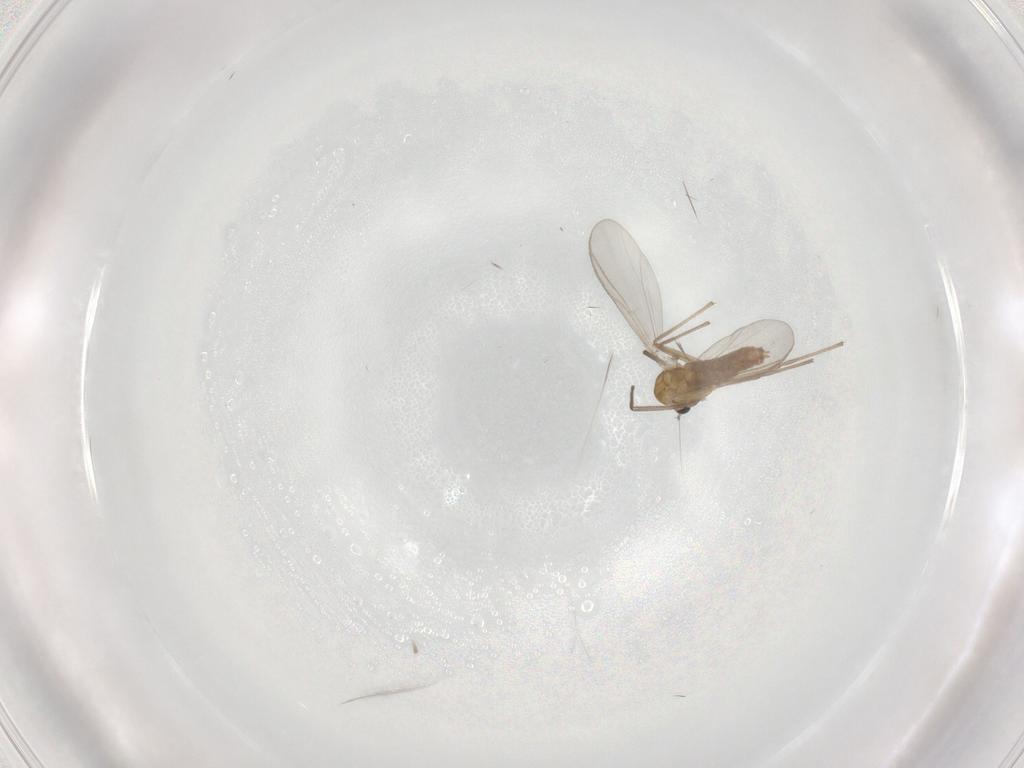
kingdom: Animalia
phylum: Arthropoda
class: Insecta
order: Diptera
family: Chironomidae
